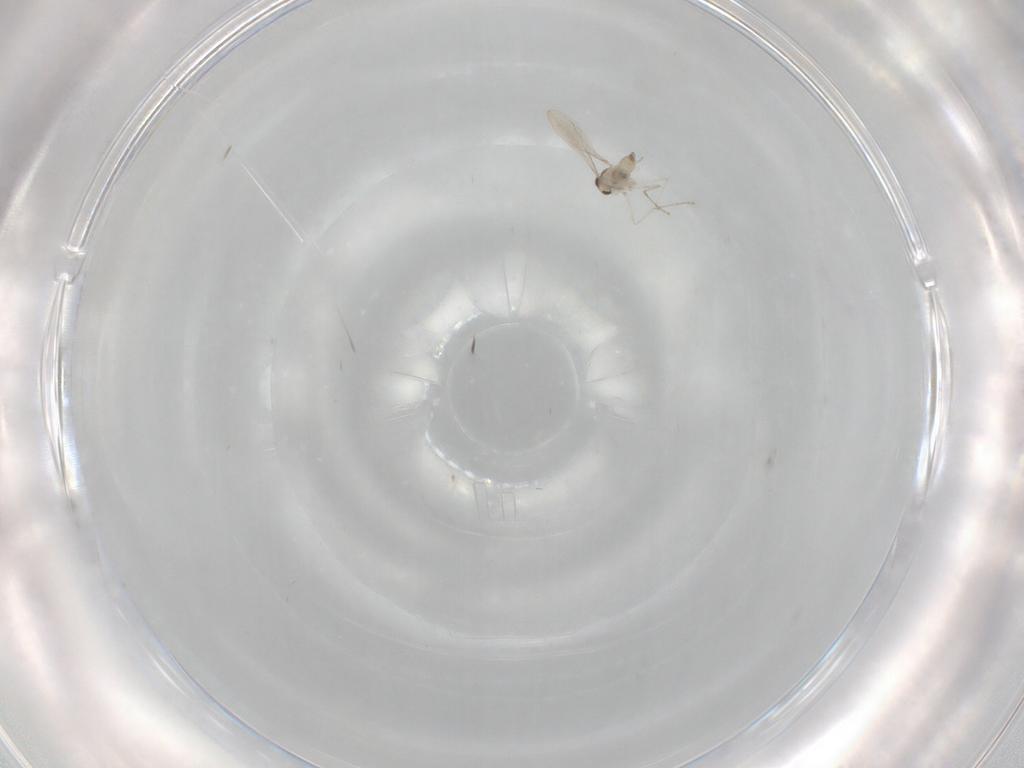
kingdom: Animalia
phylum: Arthropoda
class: Insecta
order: Diptera
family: Cecidomyiidae
